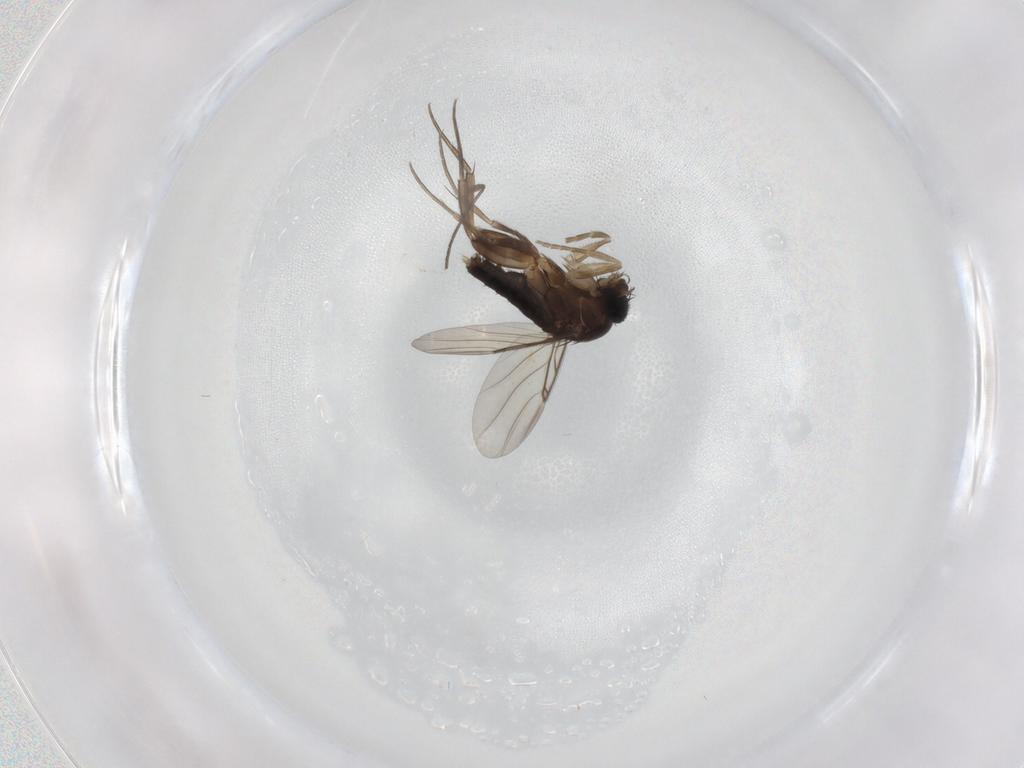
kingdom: Animalia
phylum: Arthropoda
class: Insecta
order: Diptera
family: Phoridae
